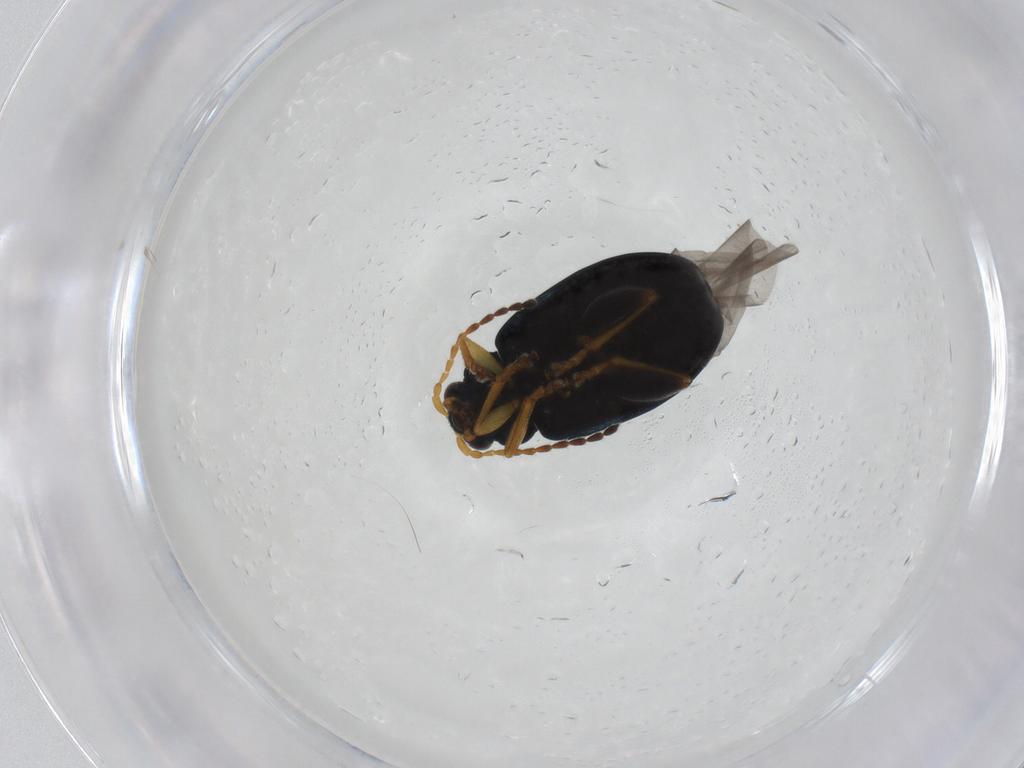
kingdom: Animalia
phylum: Arthropoda
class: Insecta
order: Coleoptera
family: Chrysomelidae
